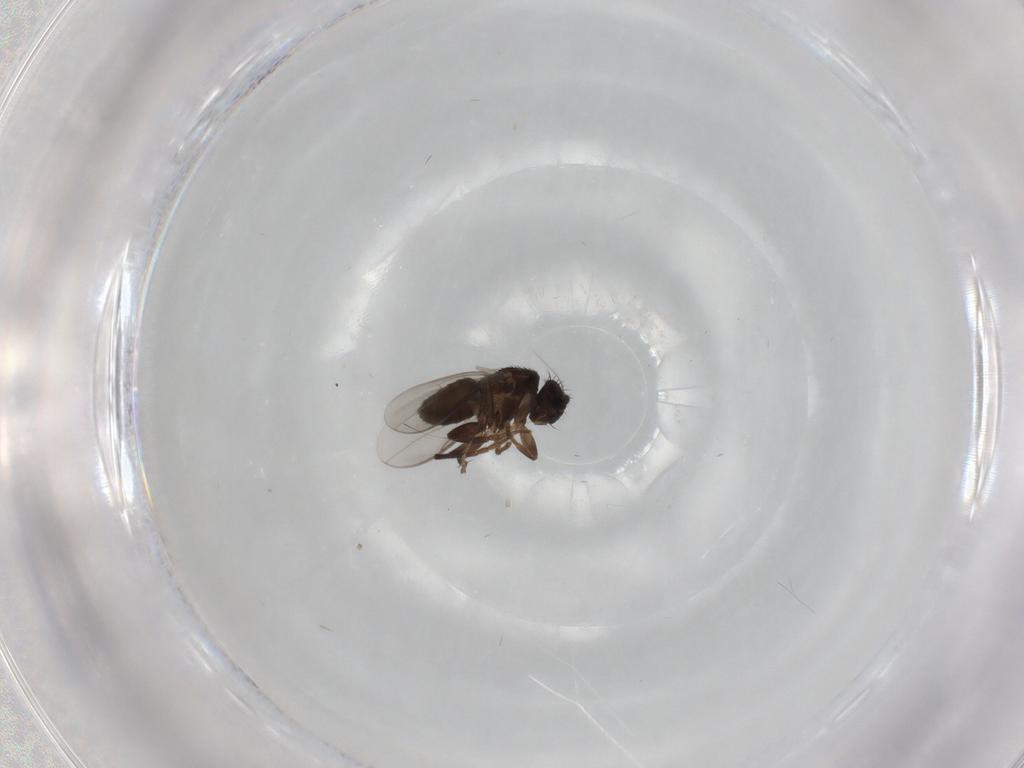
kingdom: Animalia
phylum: Arthropoda
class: Insecta
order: Diptera
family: Sphaeroceridae
